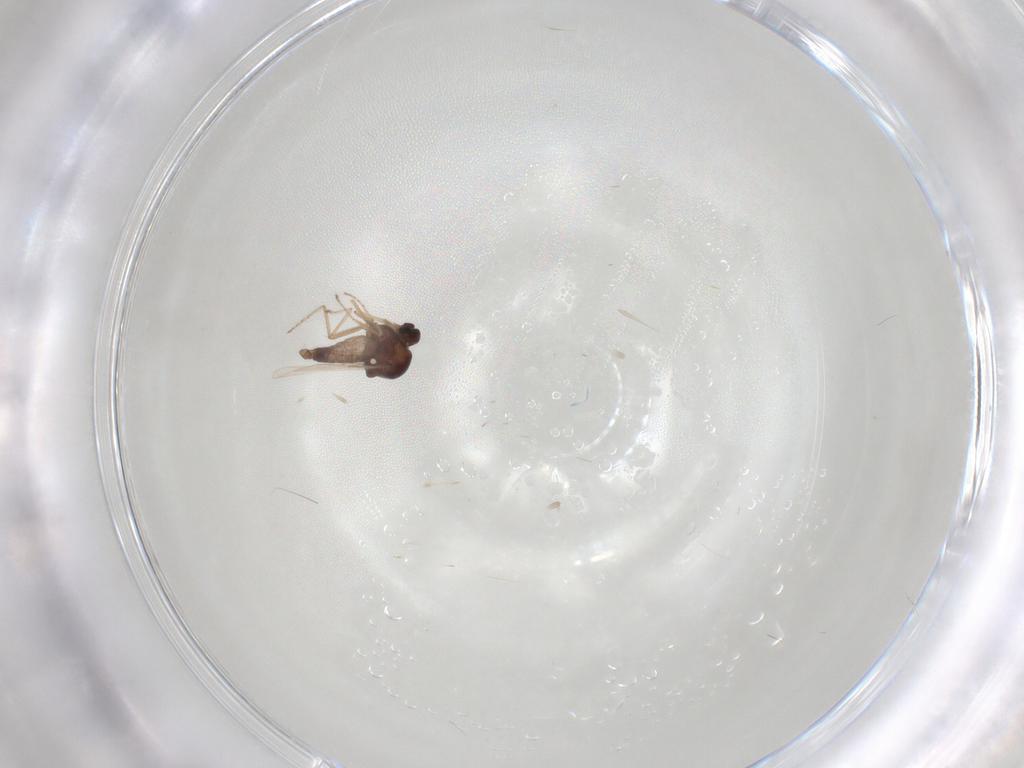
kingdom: Animalia
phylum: Arthropoda
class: Insecta
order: Diptera
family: Ceratopogonidae
